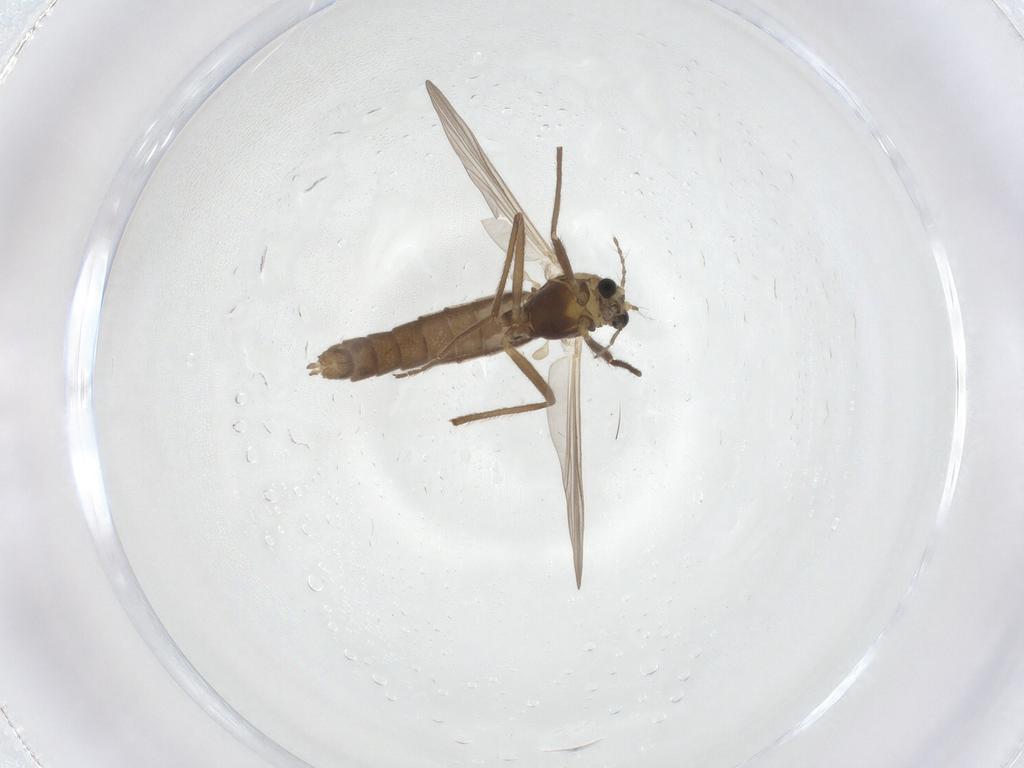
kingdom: Animalia
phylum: Arthropoda
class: Insecta
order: Diptera
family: Chironomidae
